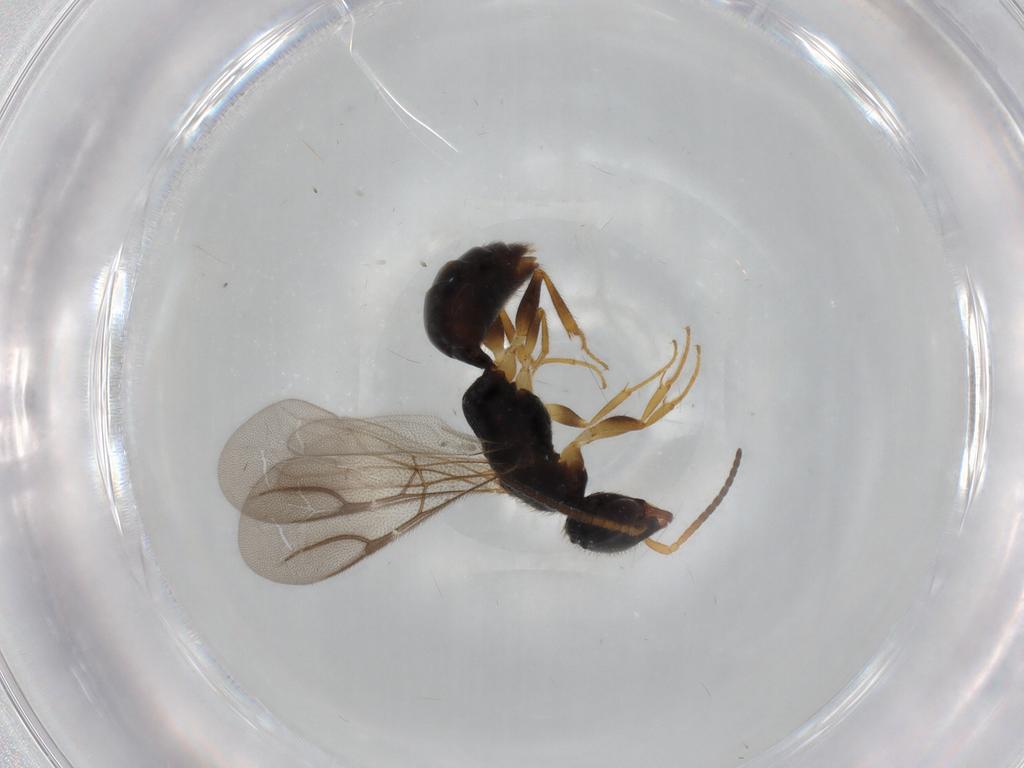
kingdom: Animalia
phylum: Arthropoda
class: Insecta
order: Hymenoptera
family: Bethylidae
